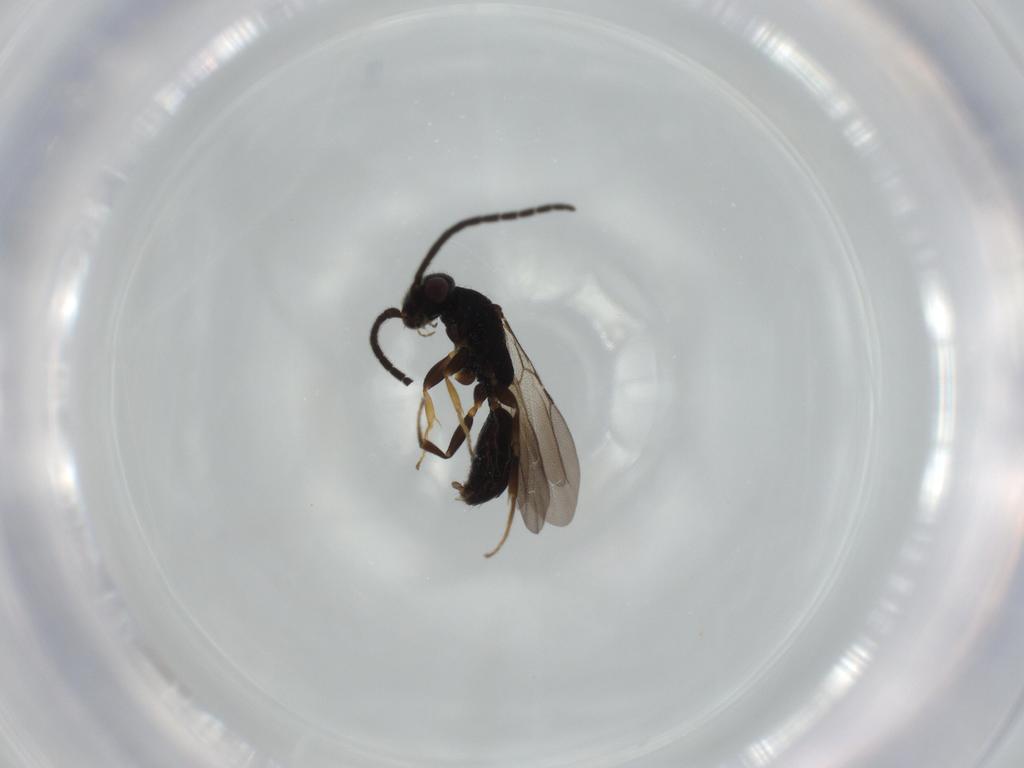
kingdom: Animalia
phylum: Arthropoda
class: Insecta
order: Hymenoptera
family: Bethylidae
